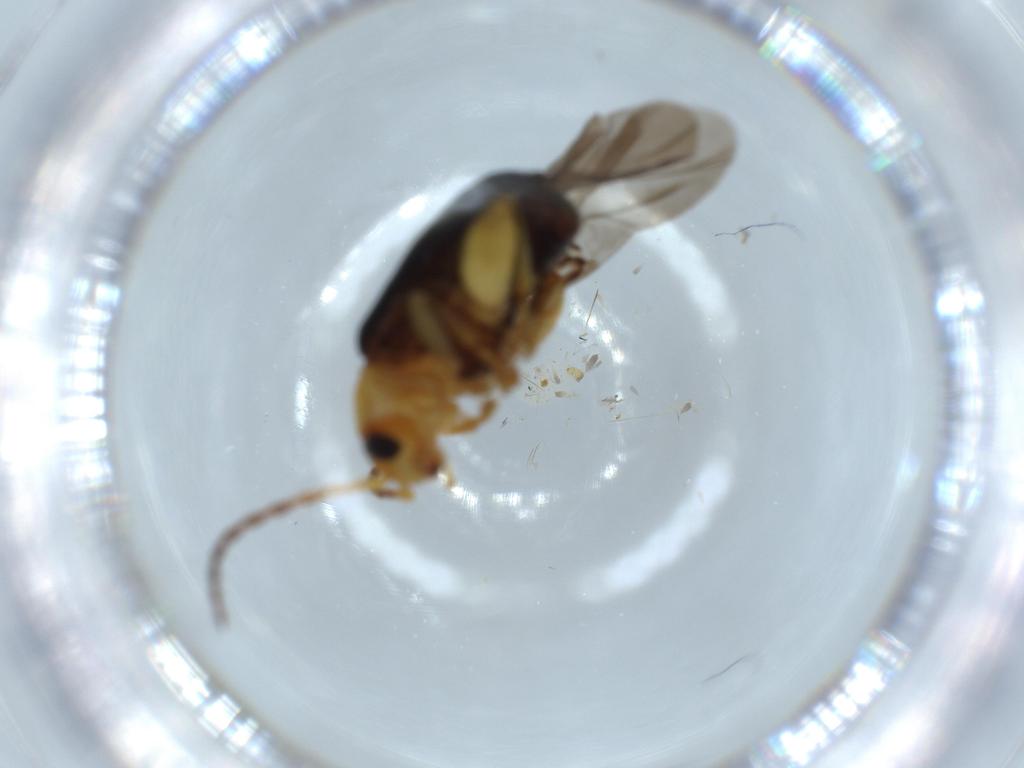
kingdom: Animalia
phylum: Arthropoda
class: Insecta
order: Coleoptera
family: Chrysomelidae
